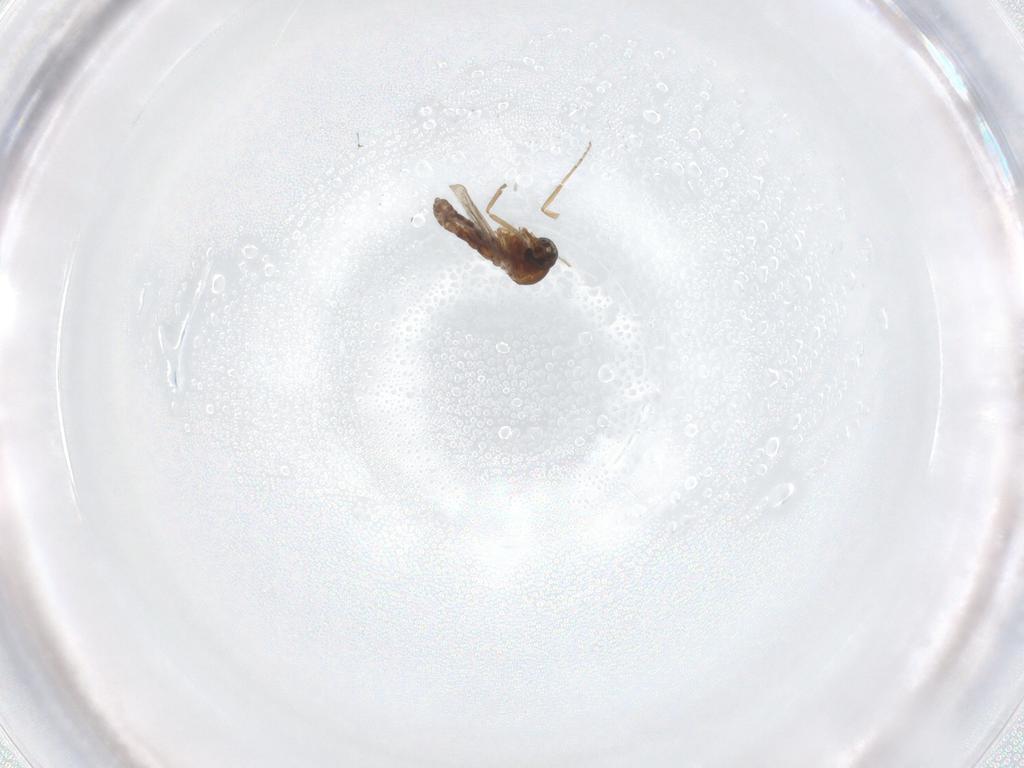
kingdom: Animalia
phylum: Arthropoda
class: Insecta
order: Diptera
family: Cecidomyiidae
